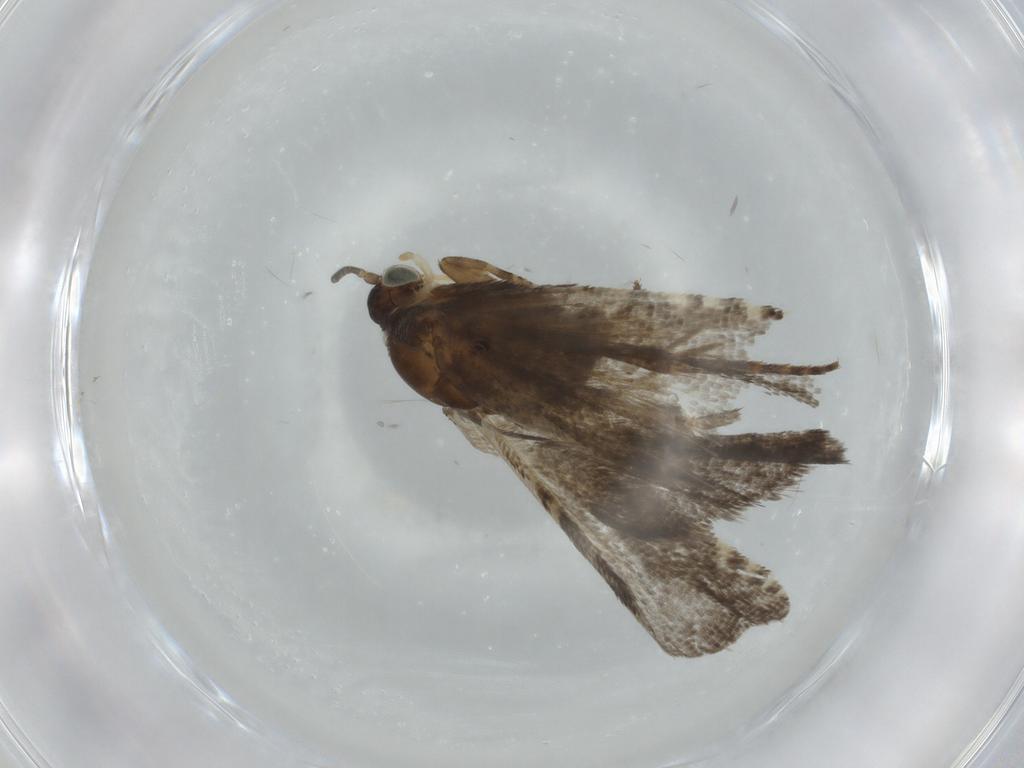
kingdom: Animalia
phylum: Arthropoda
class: Insecta
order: Lepidoptera
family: Tortricidae
